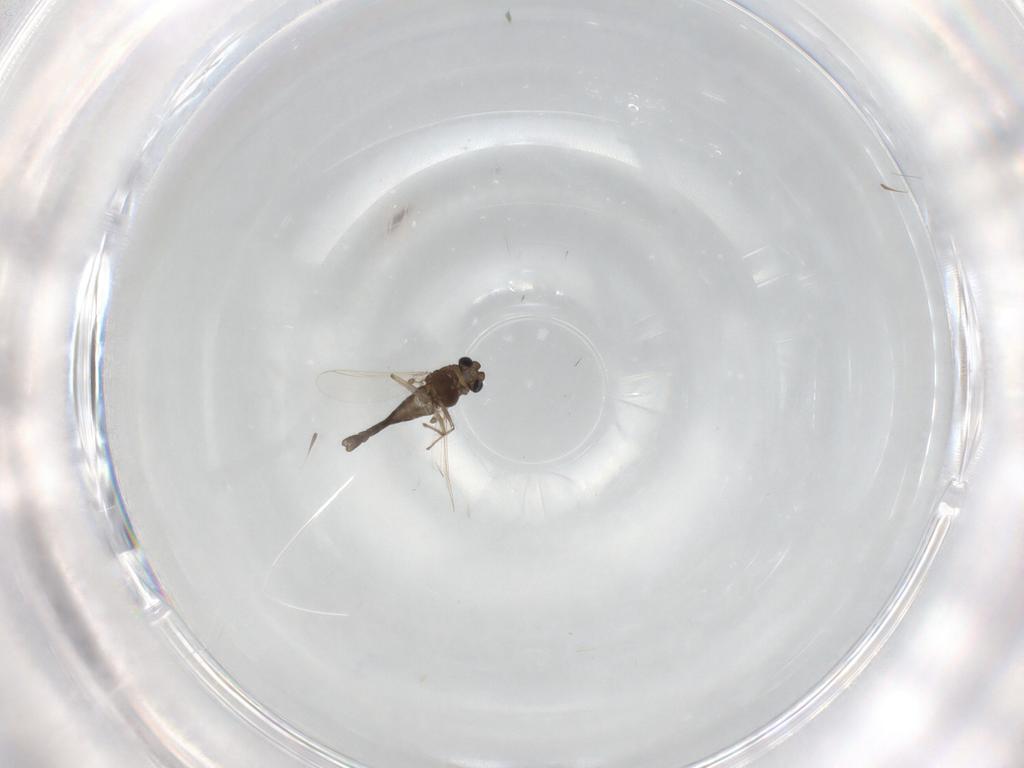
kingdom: Animalia
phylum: Arthropoda
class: Insecta
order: Diptera
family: Chironomidae
